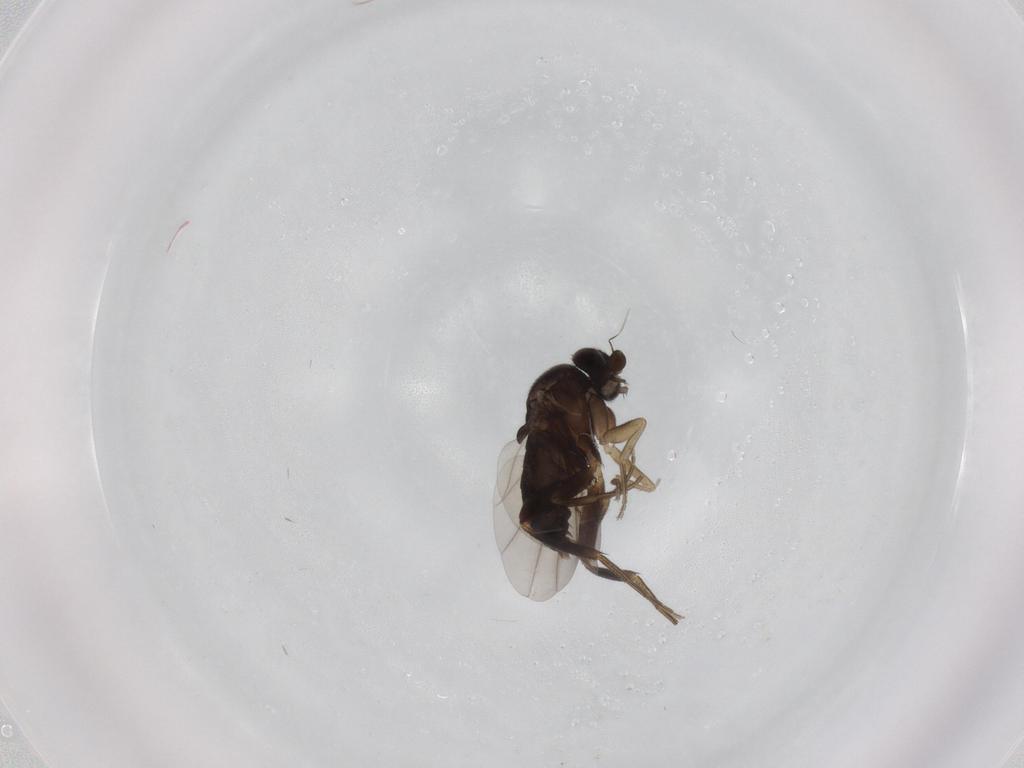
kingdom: Animalia
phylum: Arthropoda
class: Insecta
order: Diptera
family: Phoridae
